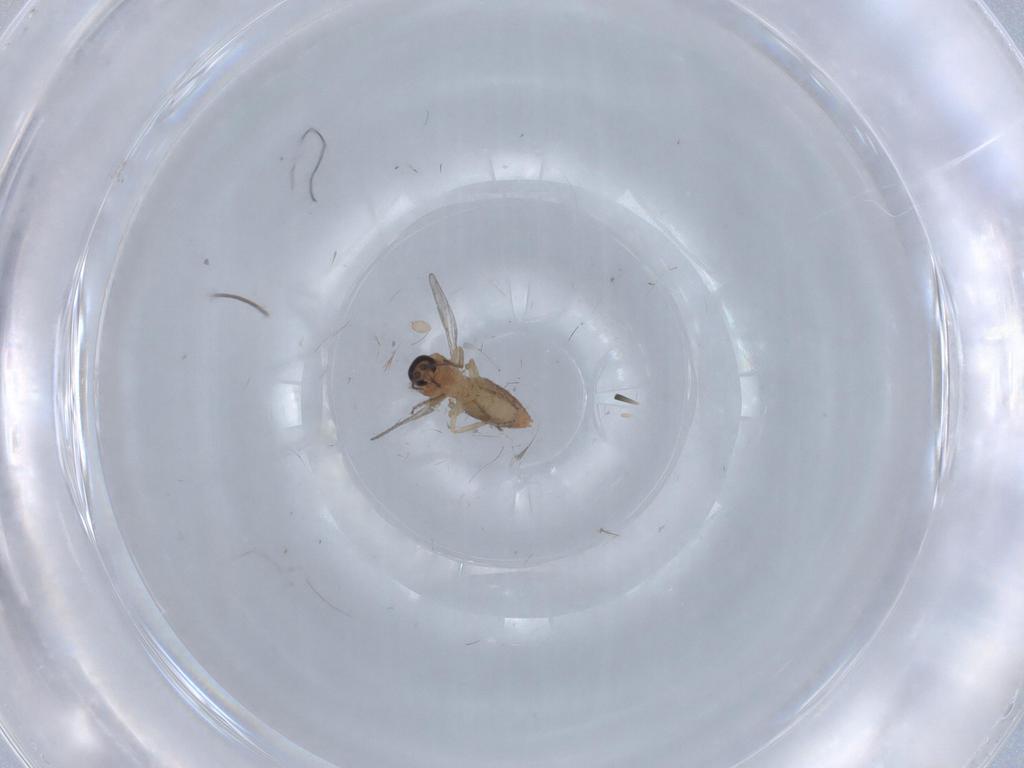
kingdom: Animalia
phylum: Arthropoda
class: Insecta
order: Diptera
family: Ceratopogonidae
